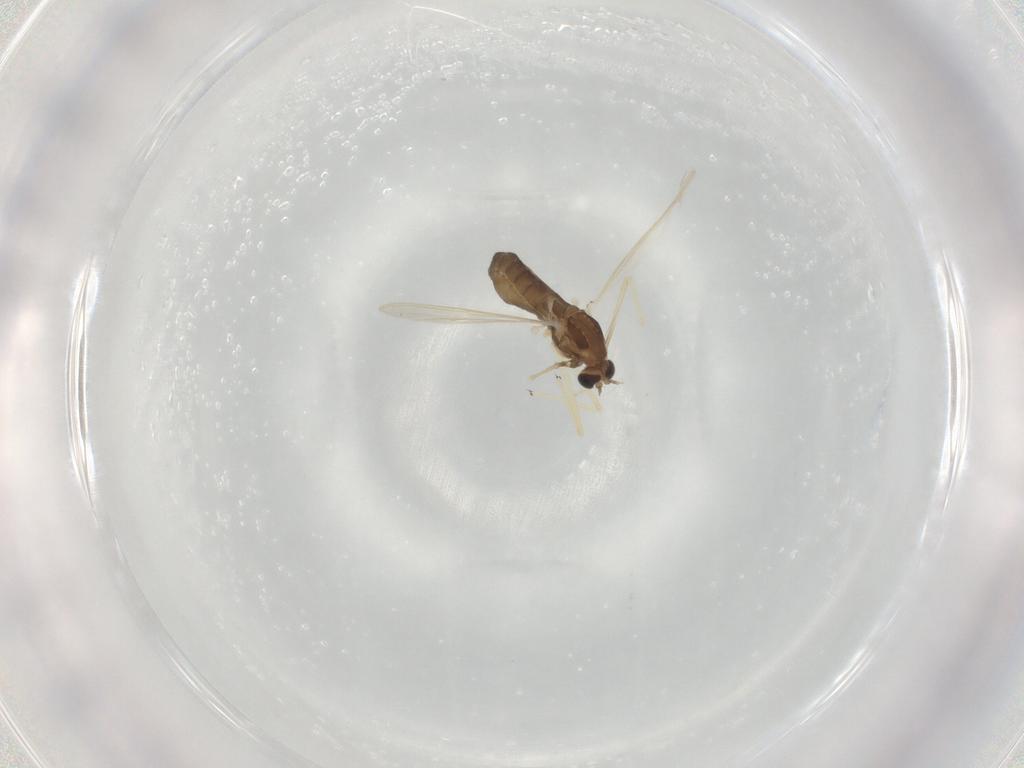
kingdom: Animalia
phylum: Arthropoda
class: Insecta
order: Diptera
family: Chironomidae
